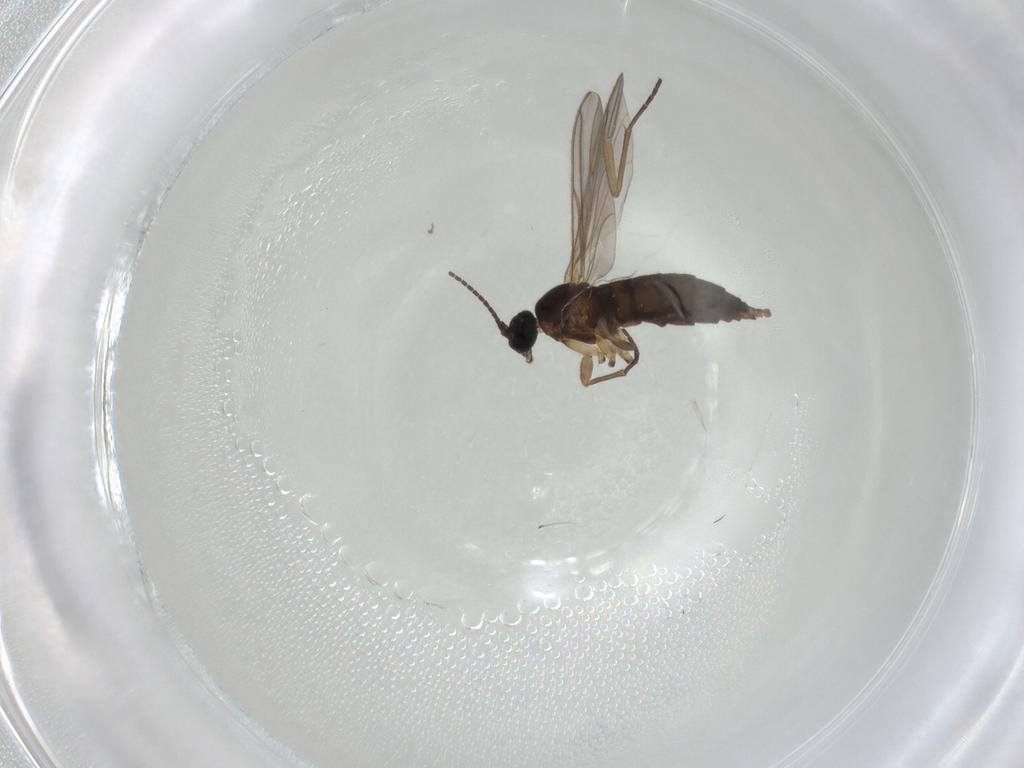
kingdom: Animalia
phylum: Arthropoda
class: Insecta
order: Diptera
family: Sciaridae
